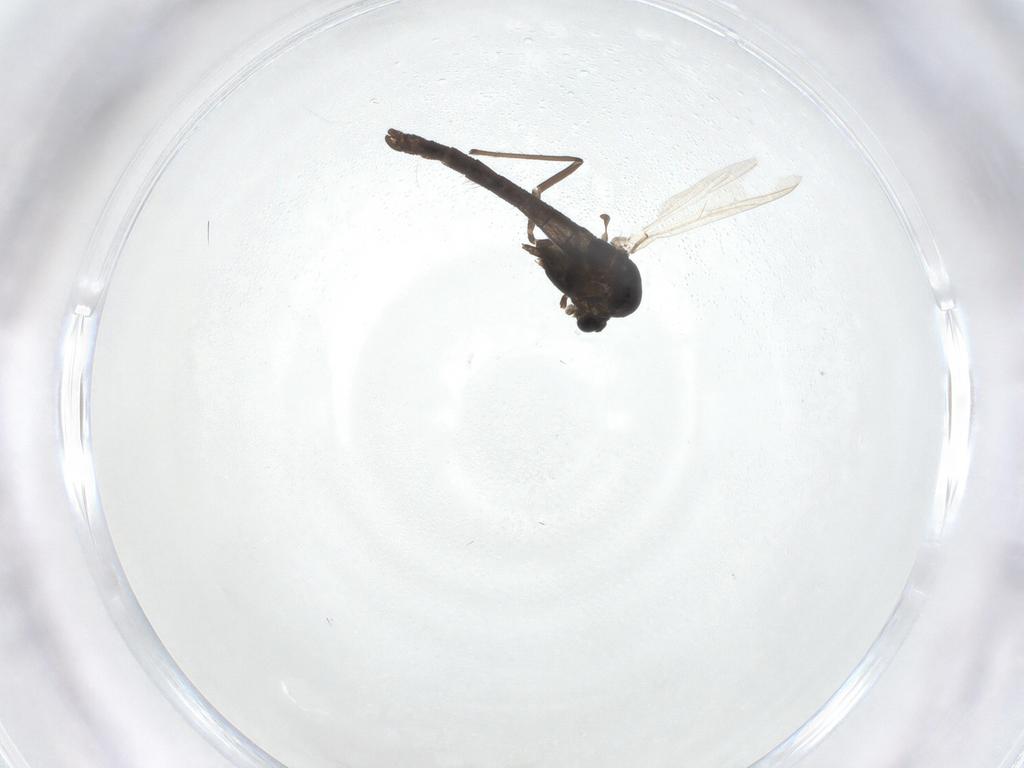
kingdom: Animalia
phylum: Arthropoda
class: Insecta
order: Diptera
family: Chironomidae
